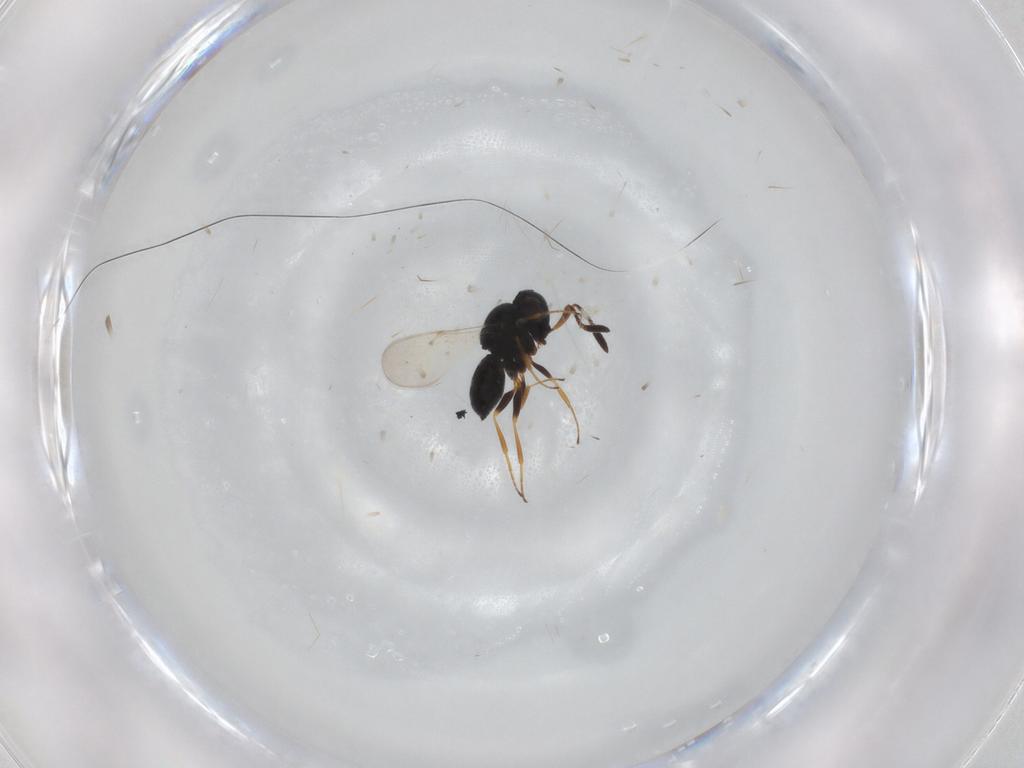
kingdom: Animalia
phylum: Arthropoda
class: Insecta
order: Coleoptera
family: Curculionidae
